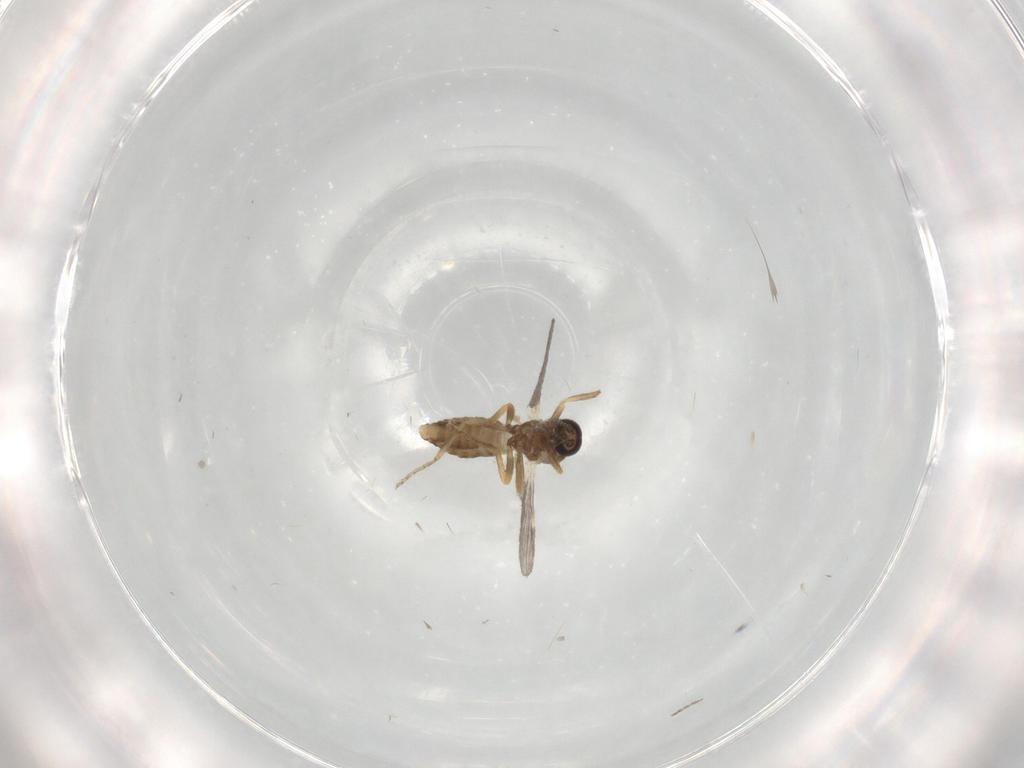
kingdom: Animalia
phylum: Arthropoda
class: Insecta
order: Diptera
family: Ceratopogonidae
